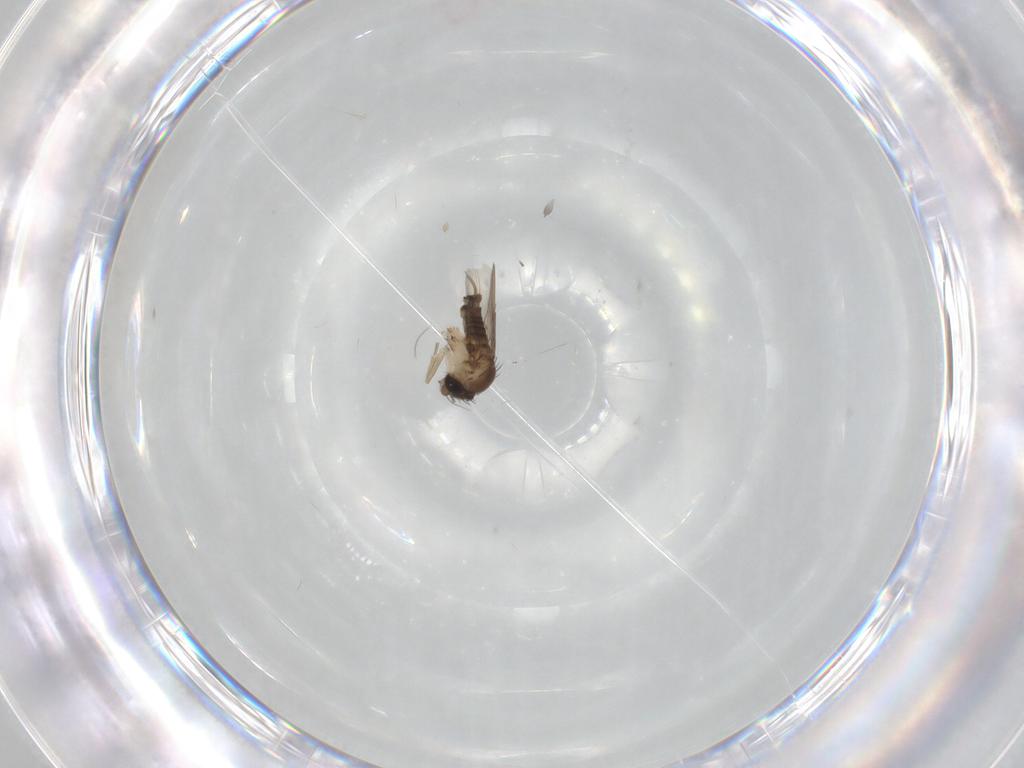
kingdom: Animalia
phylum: Arthropoda
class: Insecta
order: Diptera
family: Phoridae
